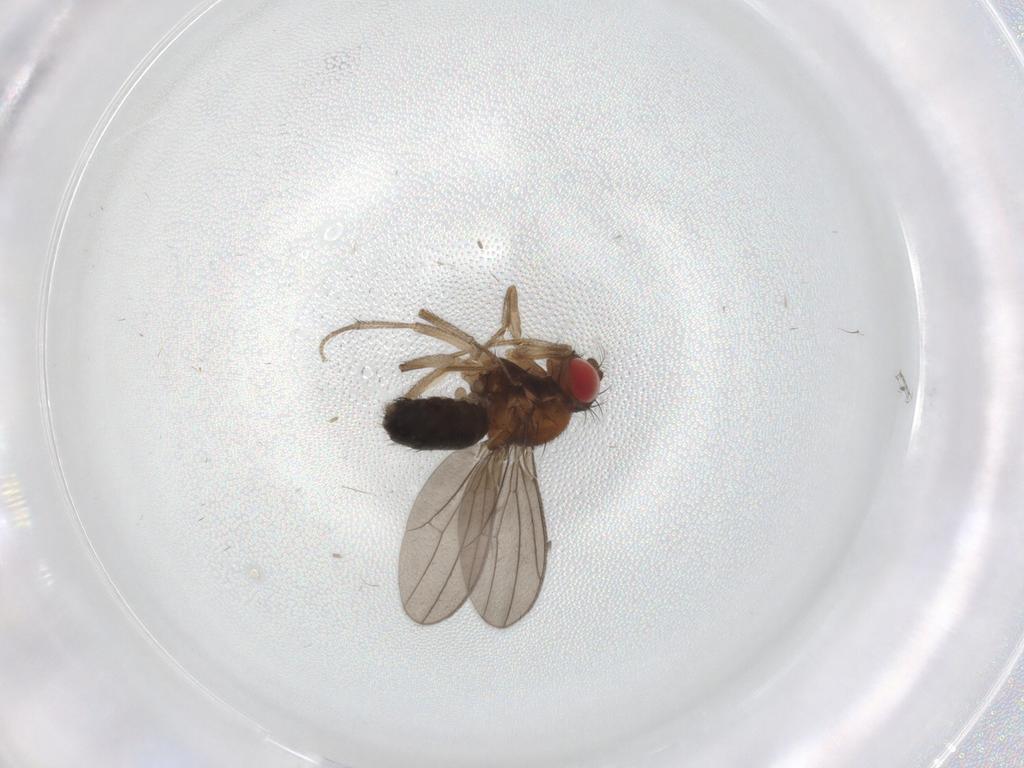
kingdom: Animalia
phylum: Arthropoda
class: Insecta
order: Diptera
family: Drosophilidae
